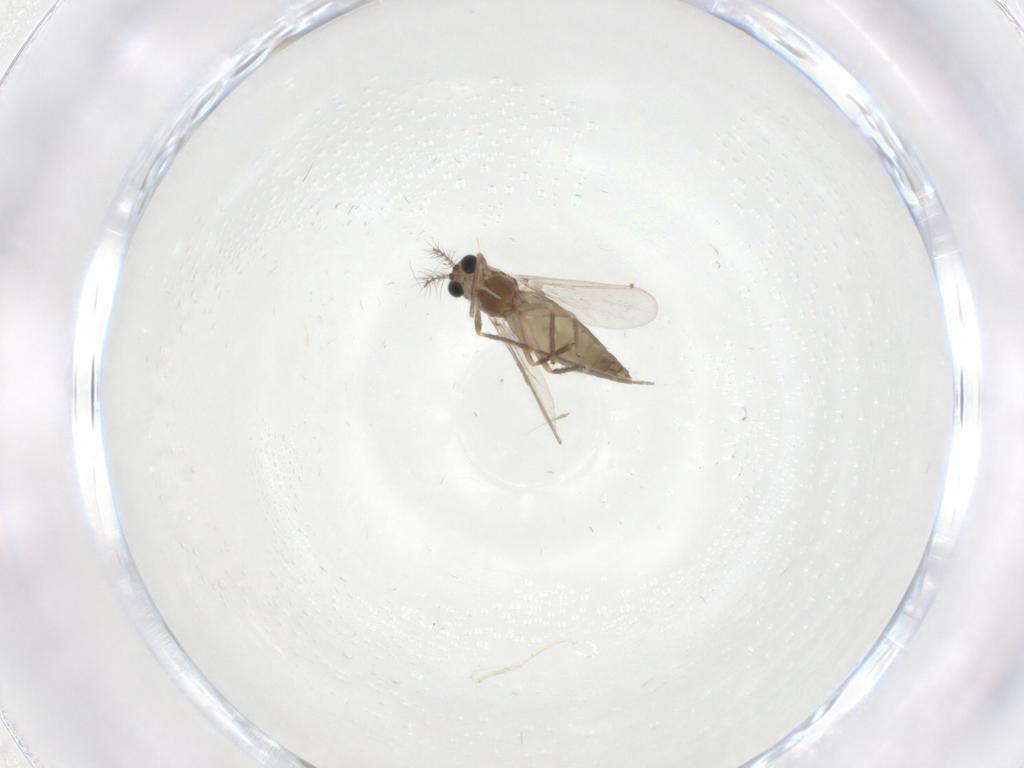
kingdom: Animalia
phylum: Arthropoda
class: Insecta
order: Diptera
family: Chironomidae
